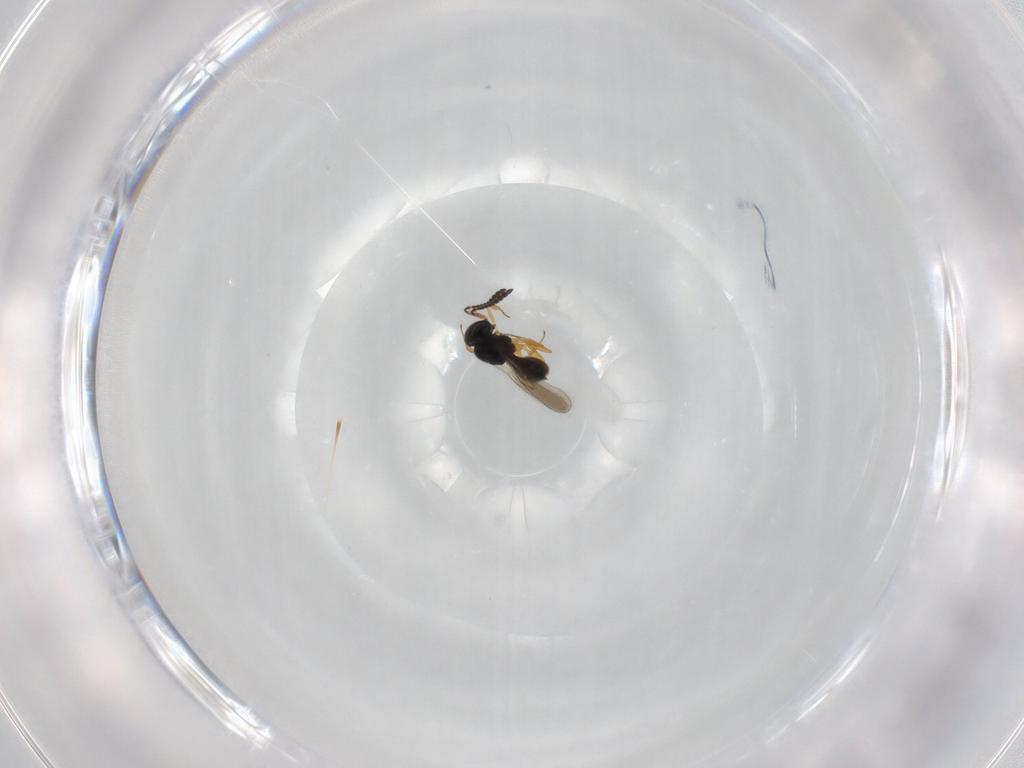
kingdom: Animalia
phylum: Arthropoda
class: Insecta
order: Hymenoptera
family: Scelionidae
